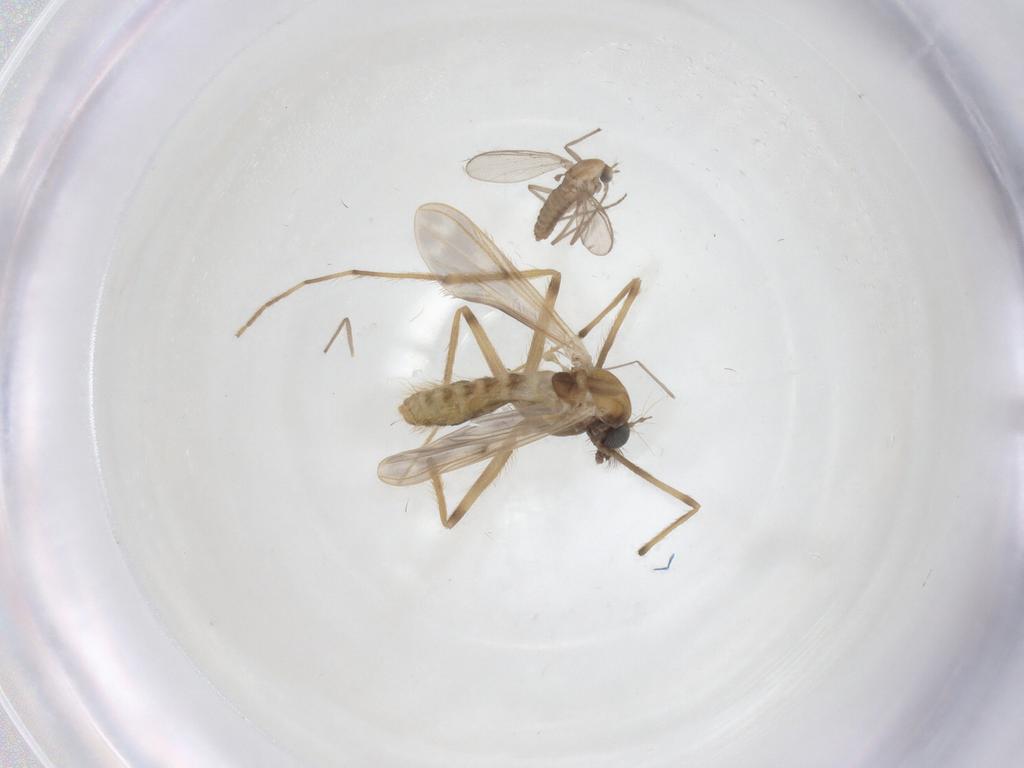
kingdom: Animalia
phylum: Arthropoda
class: Insecta
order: Diptera
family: Chironomidae
